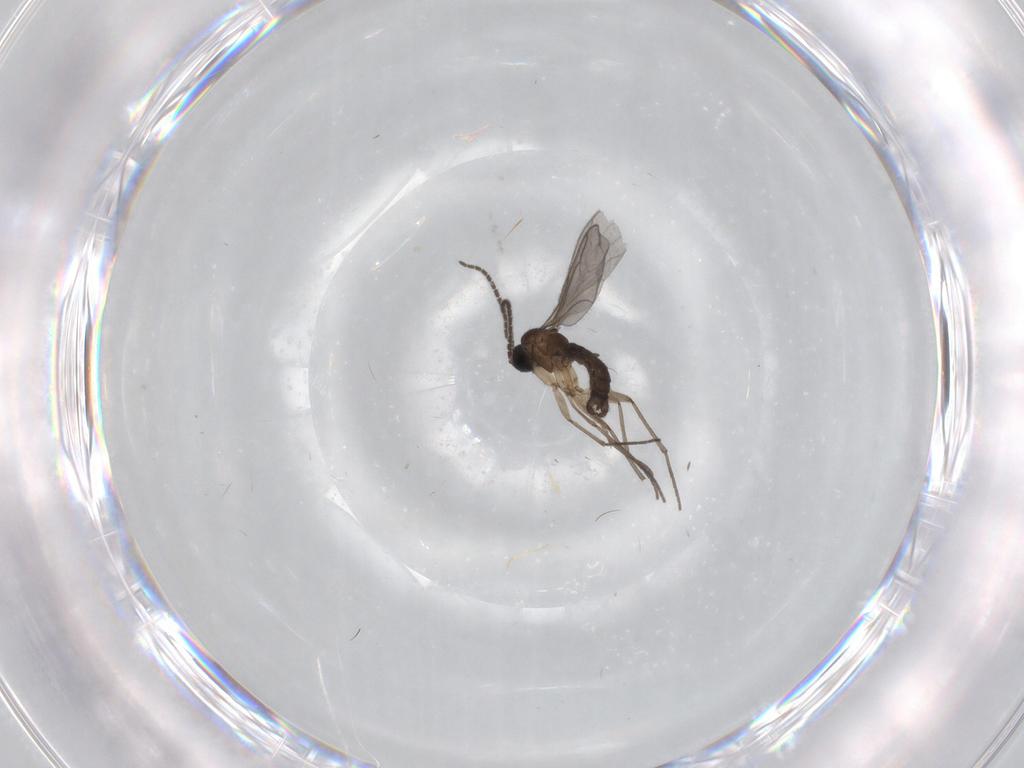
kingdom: Animalia
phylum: Arthropoda
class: Insecta
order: Diptera
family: Sciaridae
